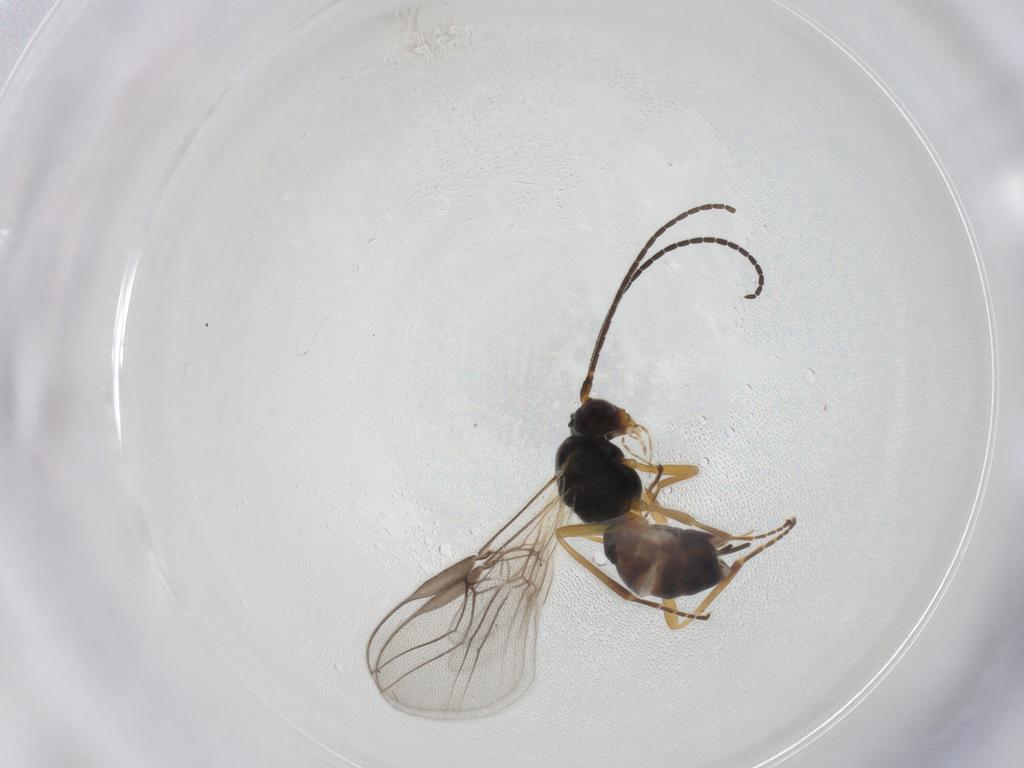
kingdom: Animalia
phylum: Arthropoda
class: Insecta
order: Hymenoptera
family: Braconidae
